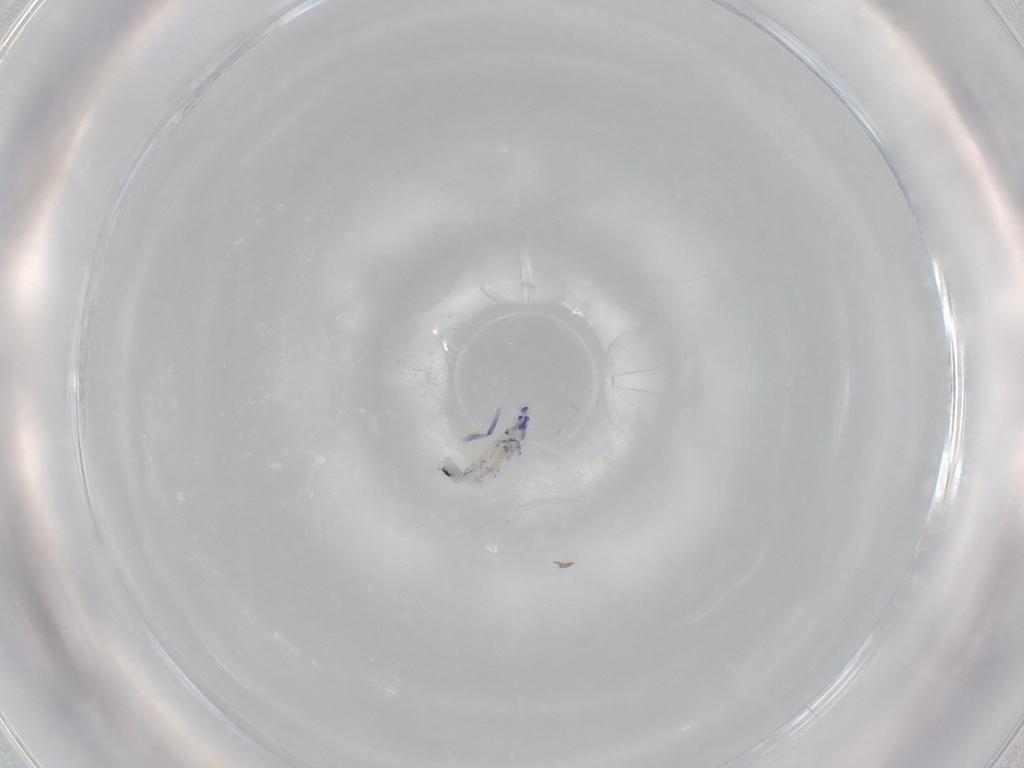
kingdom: Animalia
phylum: Arthropoda
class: Collembola
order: Entomobryomorpha
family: Entomobryidae
